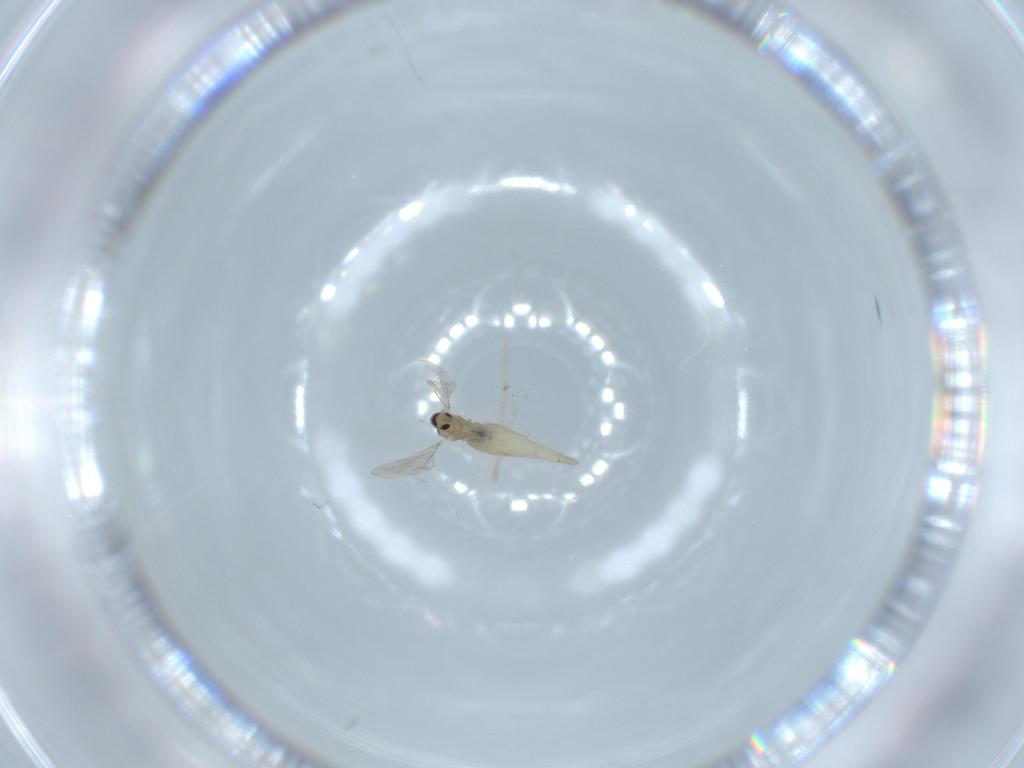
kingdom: Animalia
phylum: Arthropoda
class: Insecta
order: Diptera
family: Sciaridae
